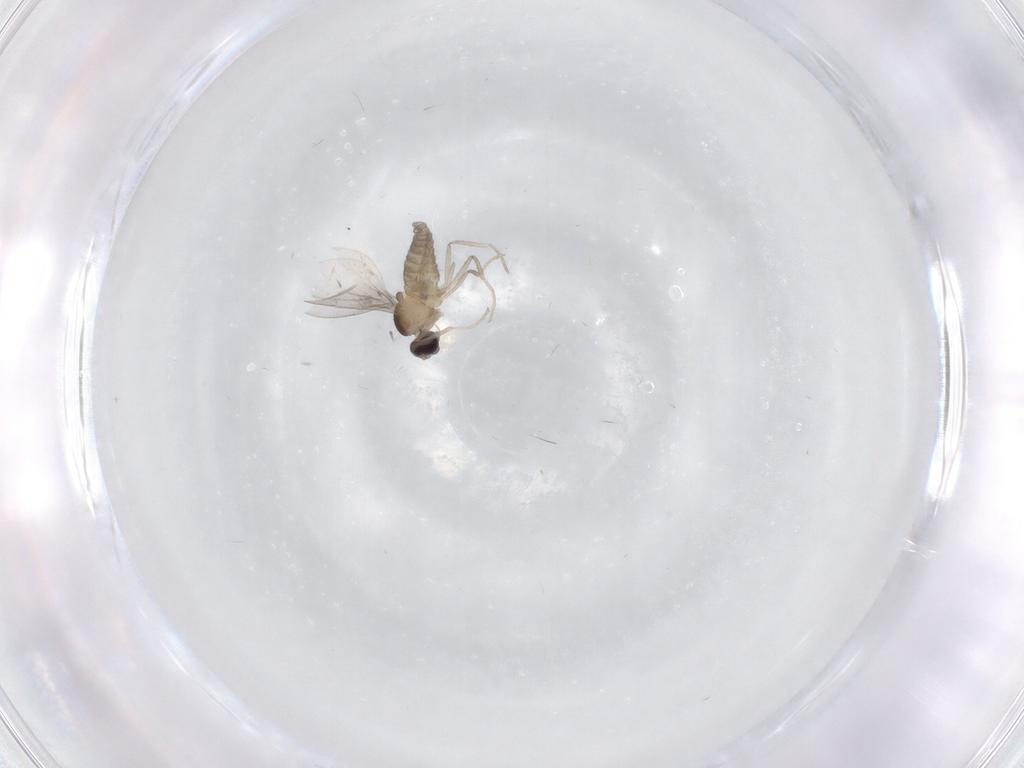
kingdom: Animalia
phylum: Arthropoda
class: Insecta
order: Diptera
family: Cecidomyiidae
